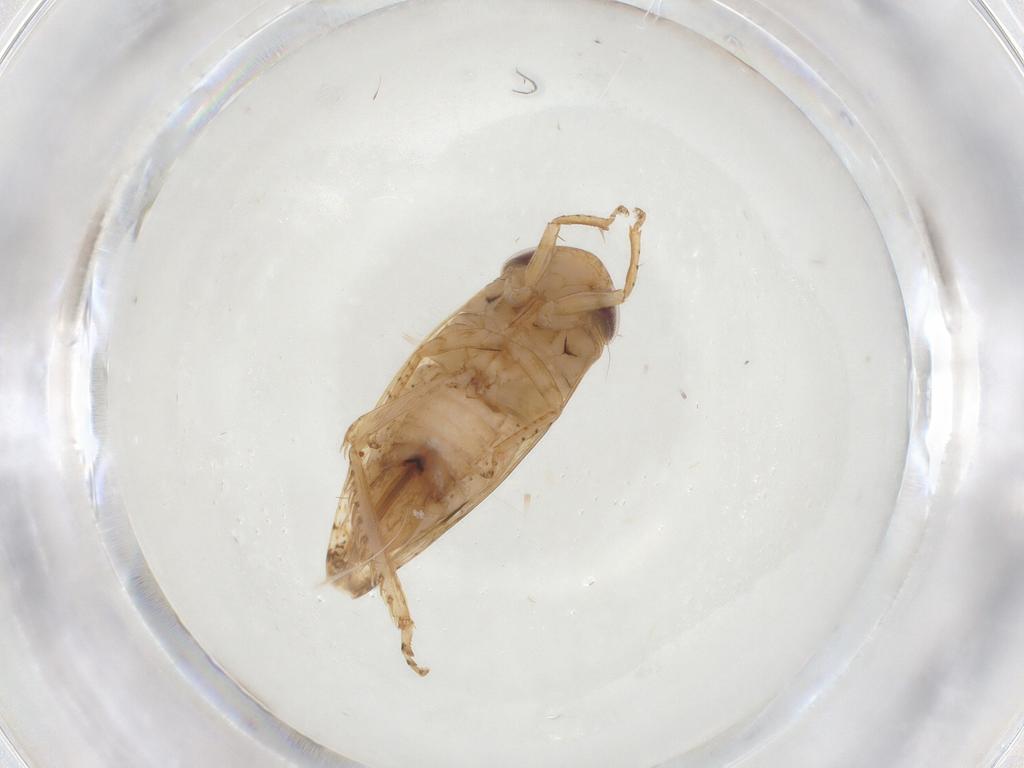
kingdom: Animalia
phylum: Arthropoda
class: Insecta
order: Hemiptera
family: Cicadellidae
